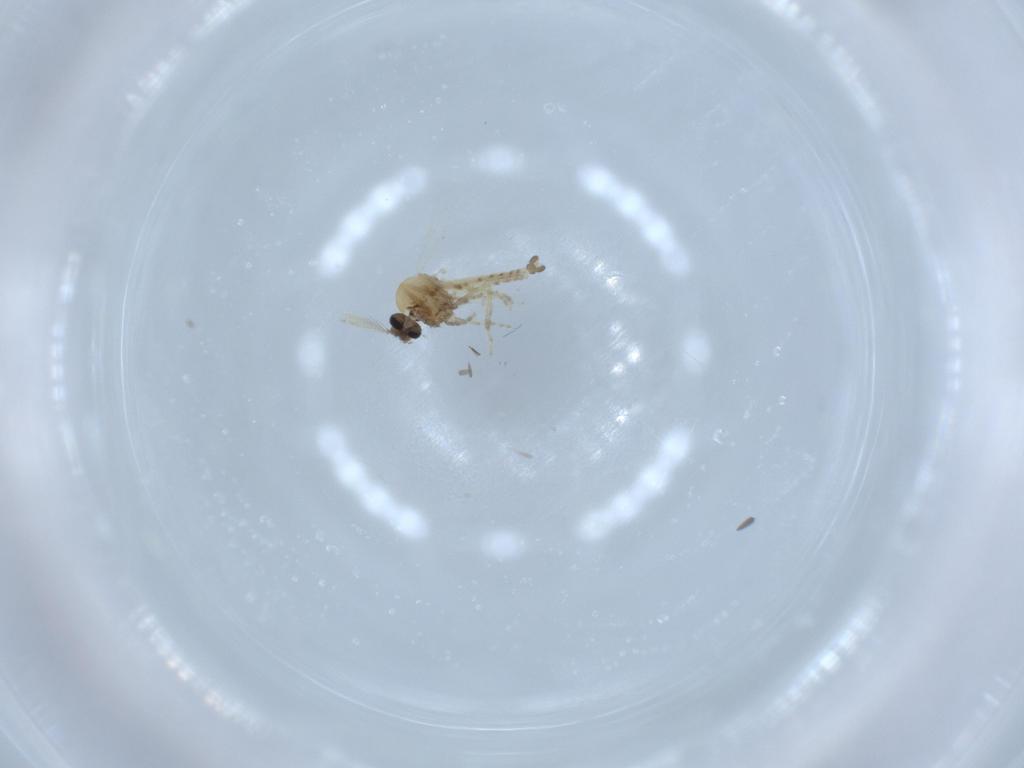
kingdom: Animalia
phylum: Arthropoda
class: Insecta
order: Diptera
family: Ceratopogonidae
